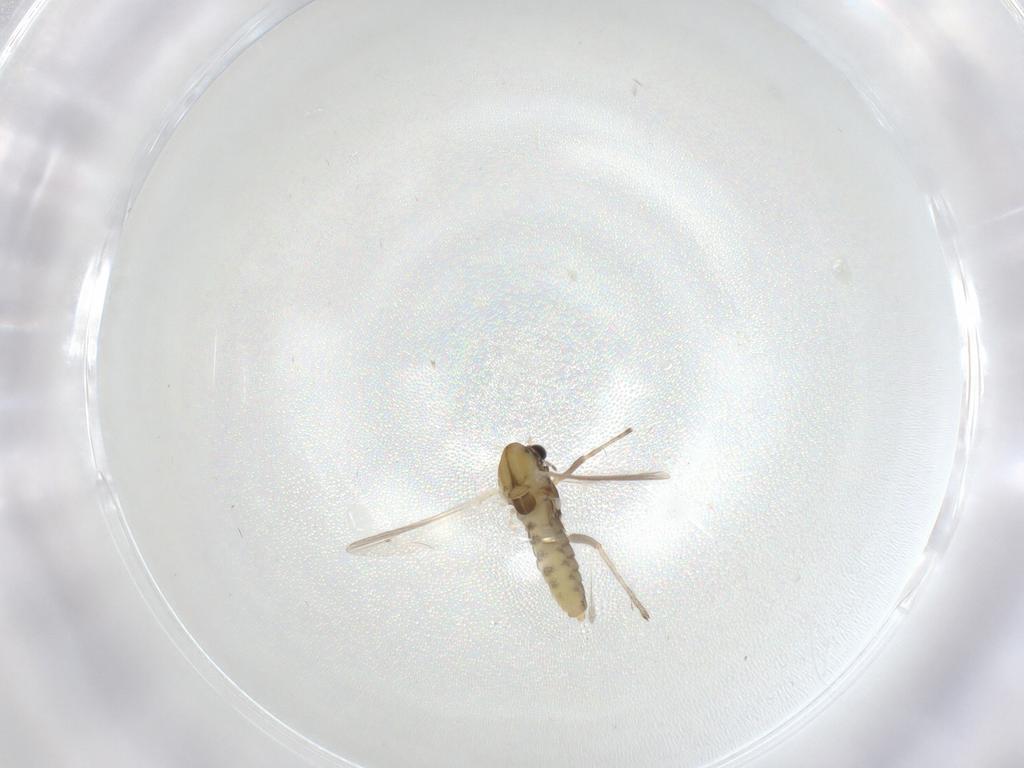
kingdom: Animalia
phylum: Arthropoda
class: Insecta
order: Diptera
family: Chironomidae
